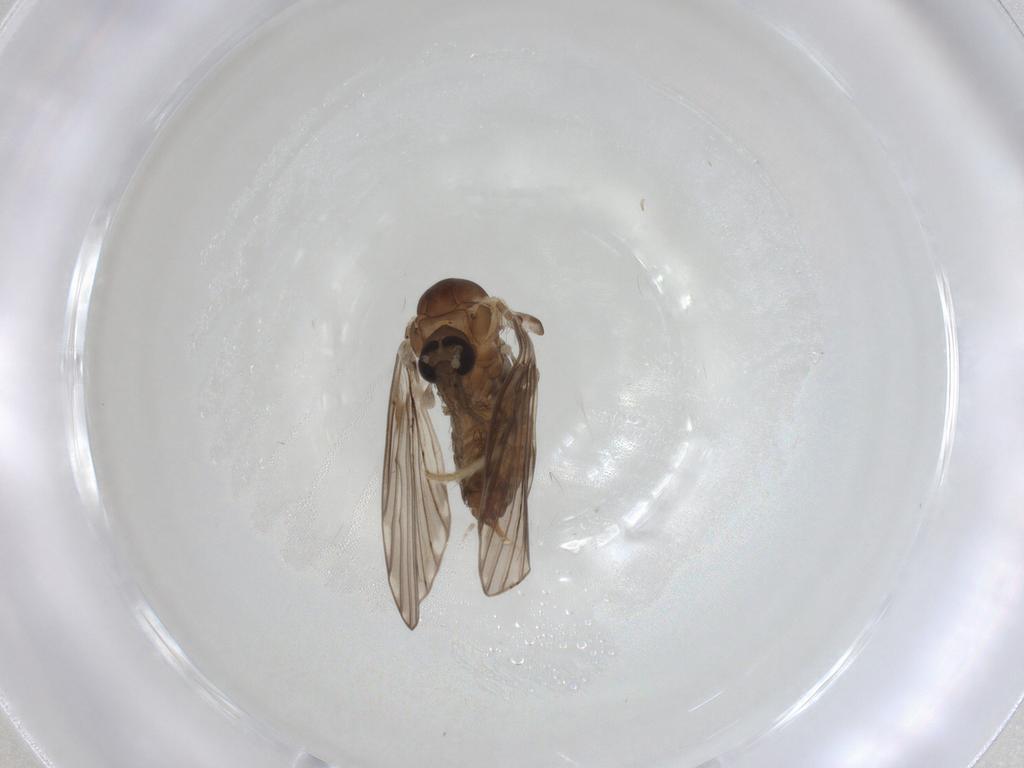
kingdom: Animalia
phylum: Arthropoda
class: Insecta
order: Diptera
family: Psychodidae
